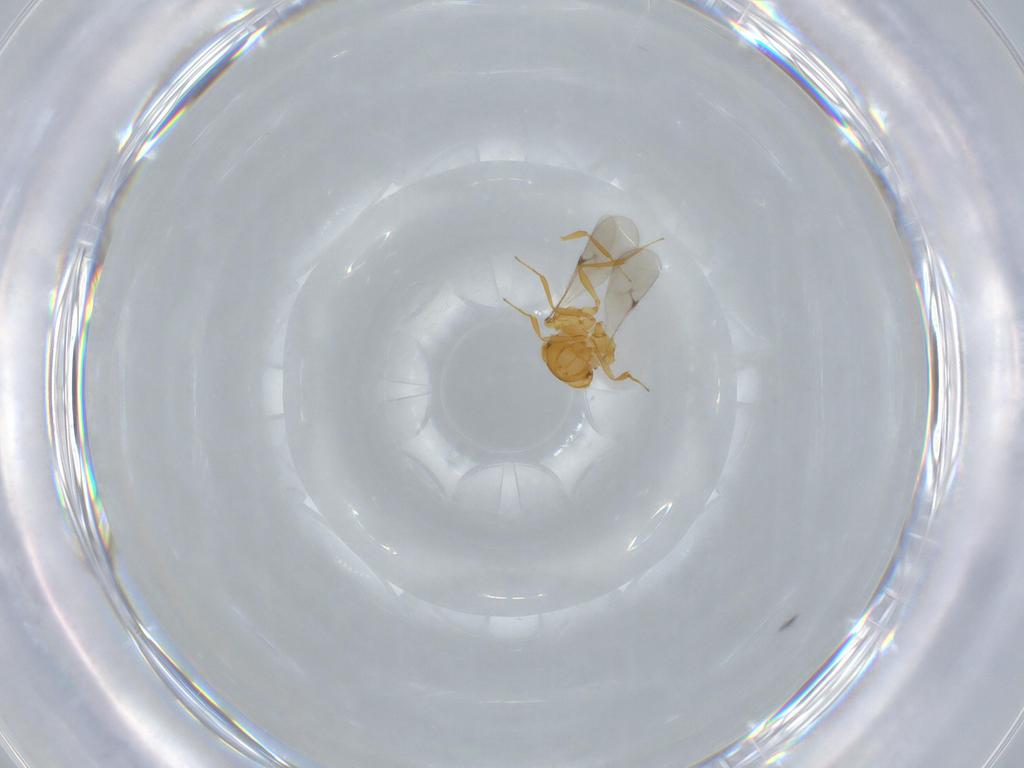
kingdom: Animalia
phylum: Arthropoda
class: Insecta
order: Hymenoptera
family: Scelionidae
